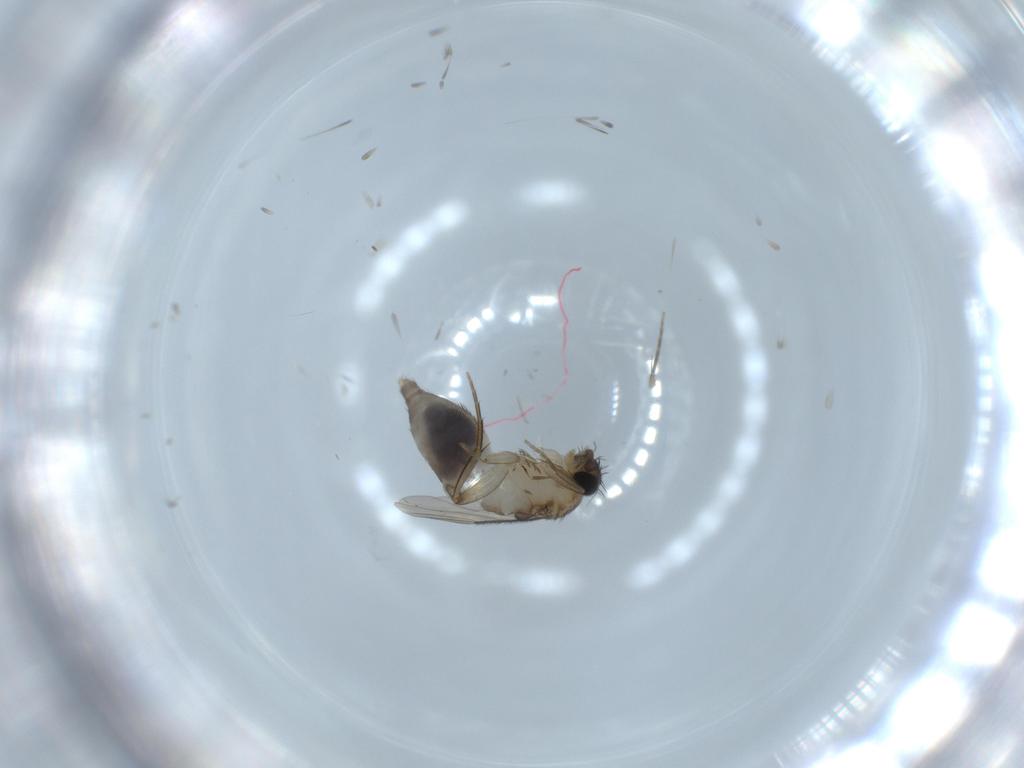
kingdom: Animalia
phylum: Arthropoda
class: Insecta
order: Diptera
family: Phoridae
